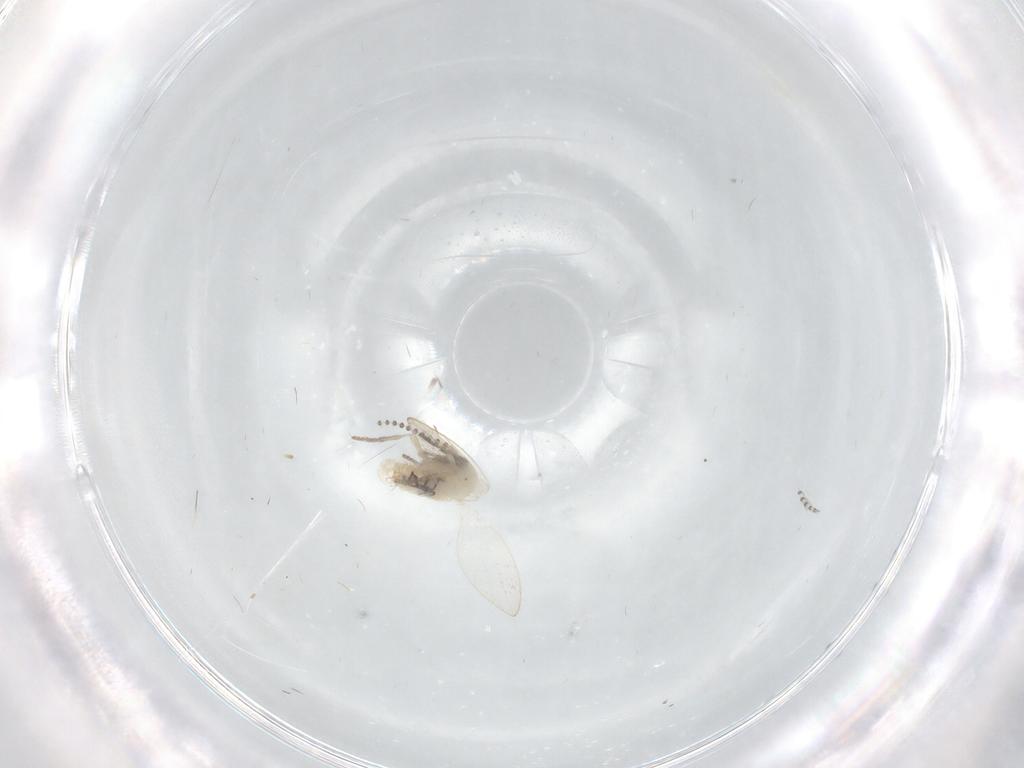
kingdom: Animalia
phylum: Arthropoda
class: Insecta
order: Diptera
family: Psychodidae
